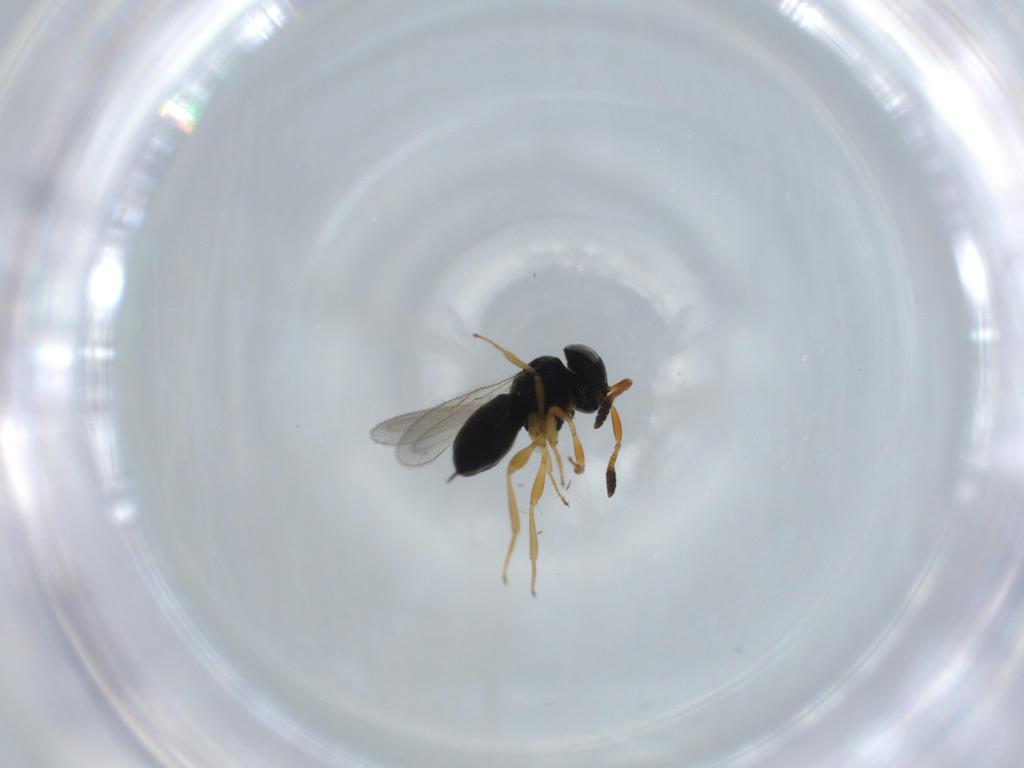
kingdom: Animalia
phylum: Arthropoda
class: Insecta
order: Hymenoptera
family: Scelionidae
